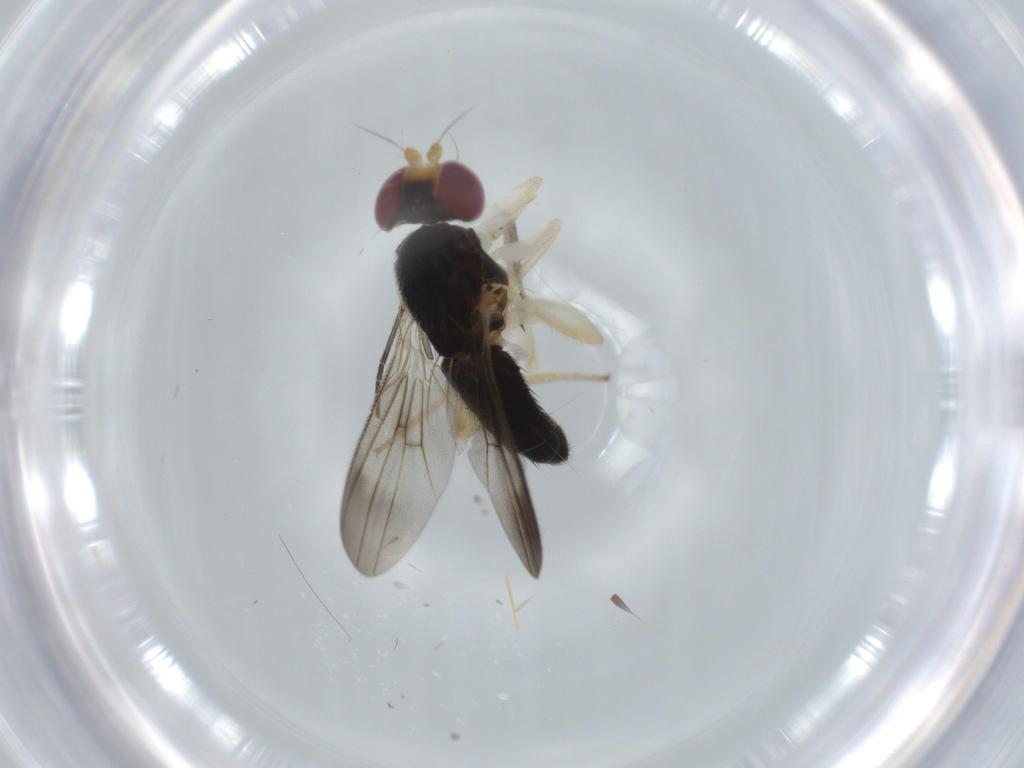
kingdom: Animalia
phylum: Arthropoda
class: Insecta
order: Diptera
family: Clusiidae
